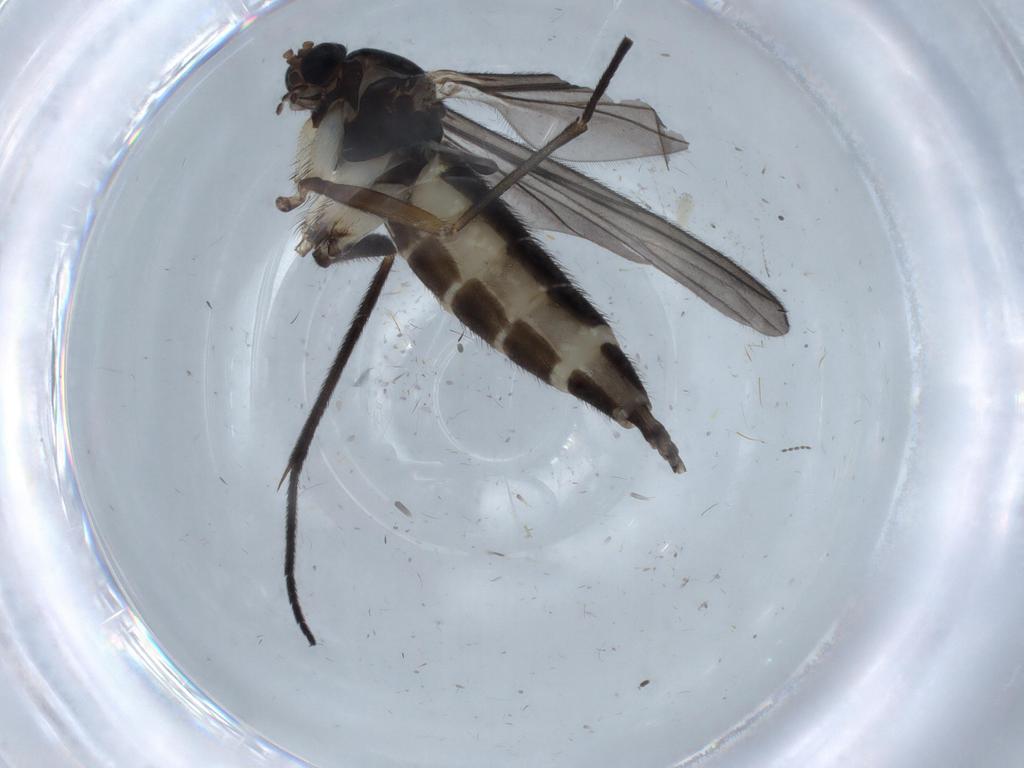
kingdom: Animalia
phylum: Arthropoda
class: Insecta
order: Diptera
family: Sciaridae
